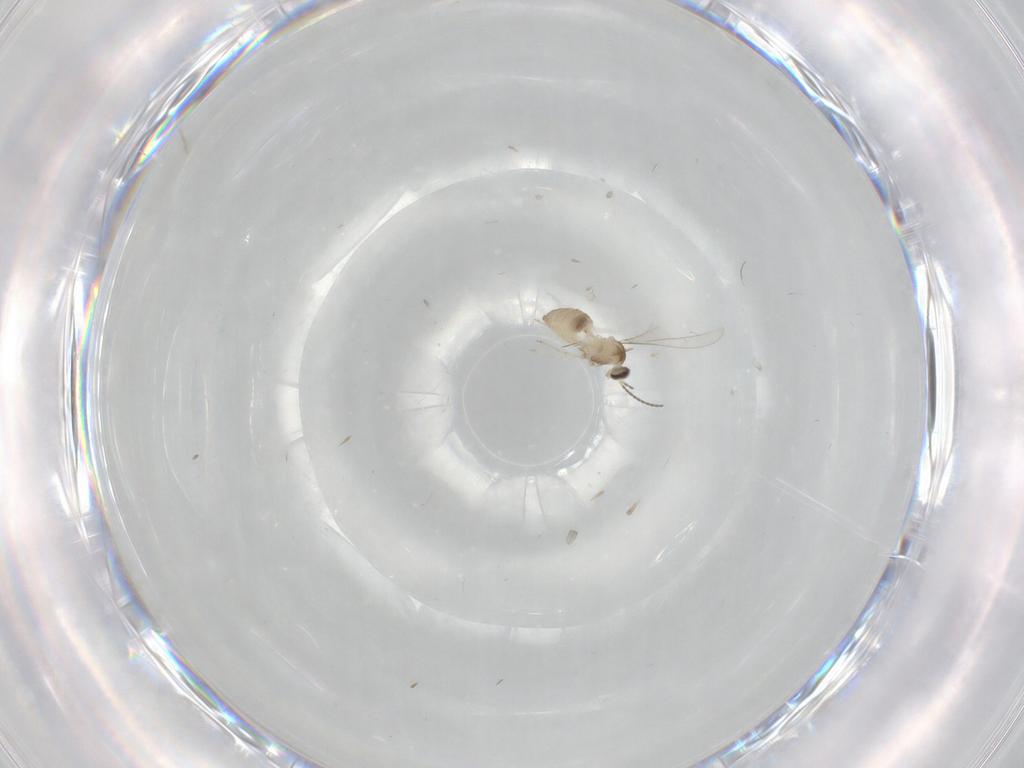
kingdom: Animalia
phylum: Arthropoda
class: Insecta
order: Diptera
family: Cecidomyiidae
